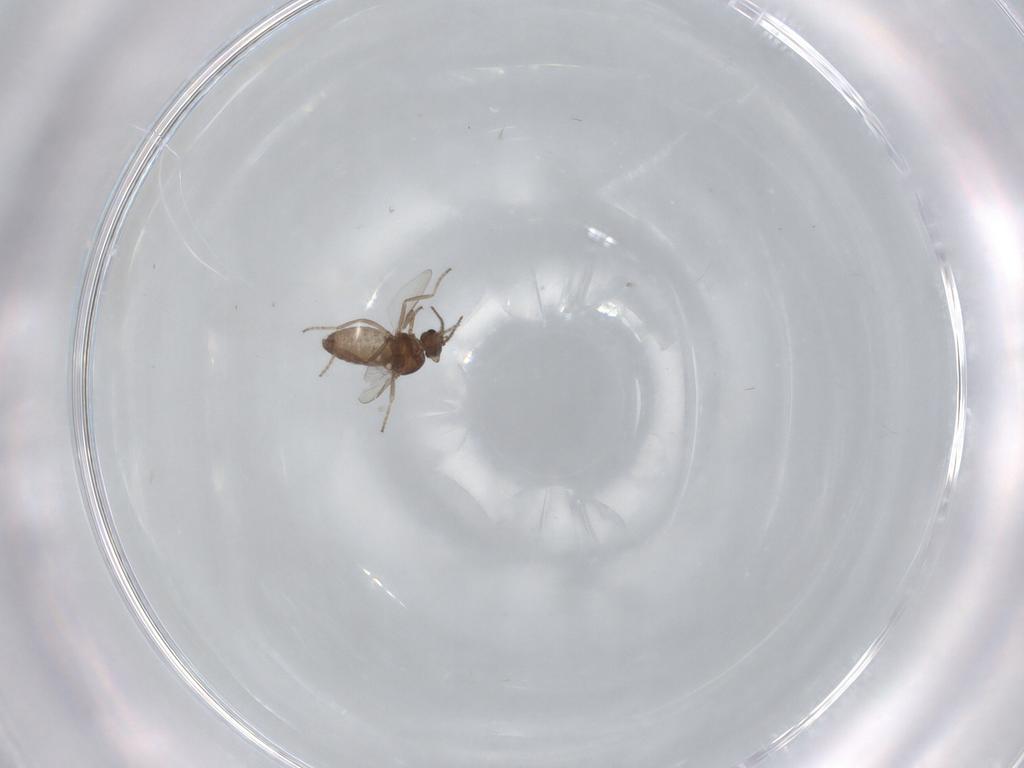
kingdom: Animalia
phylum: Arthropoda
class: Insecta
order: Diptera
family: Ceratopogonidae
